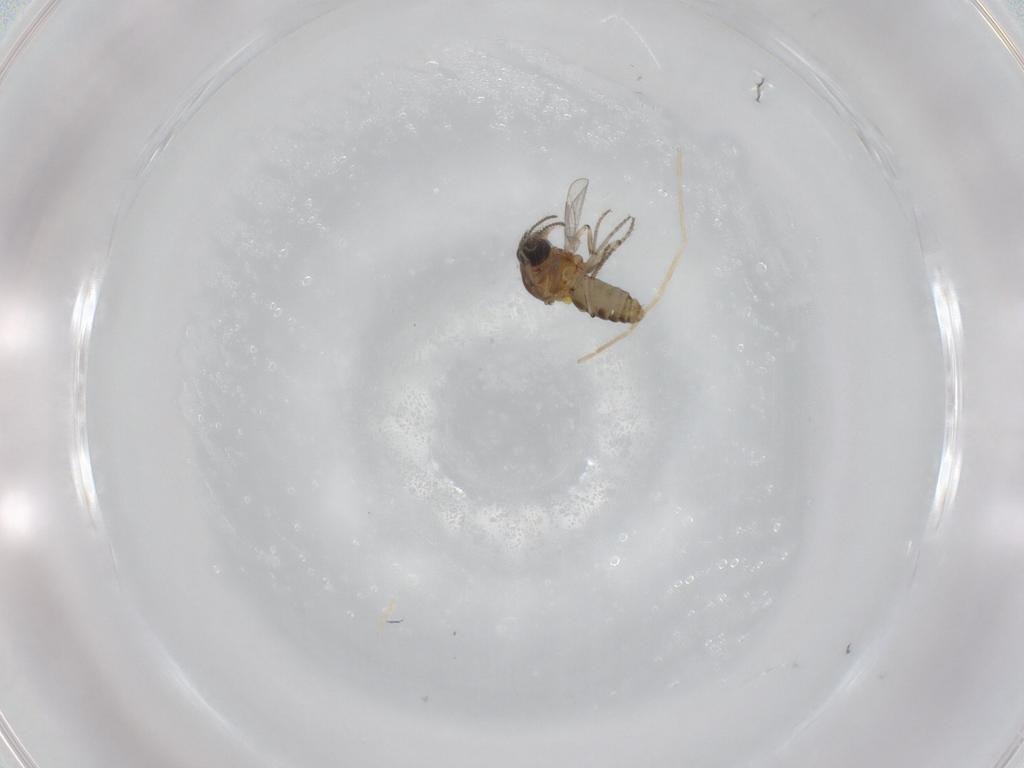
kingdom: Animalia
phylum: Arthropoda
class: Insecta
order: Diptera
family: Ceratopogonidae
